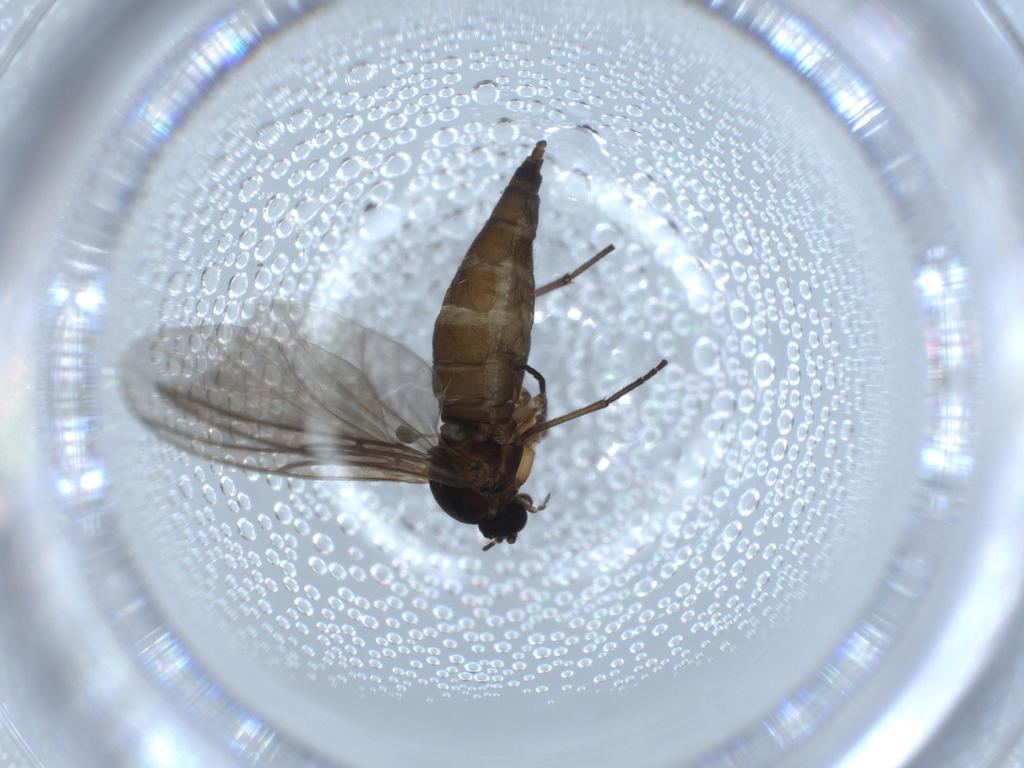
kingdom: Animalia
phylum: Arthropoda
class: Insecta
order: Diptera
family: Sciaridae
